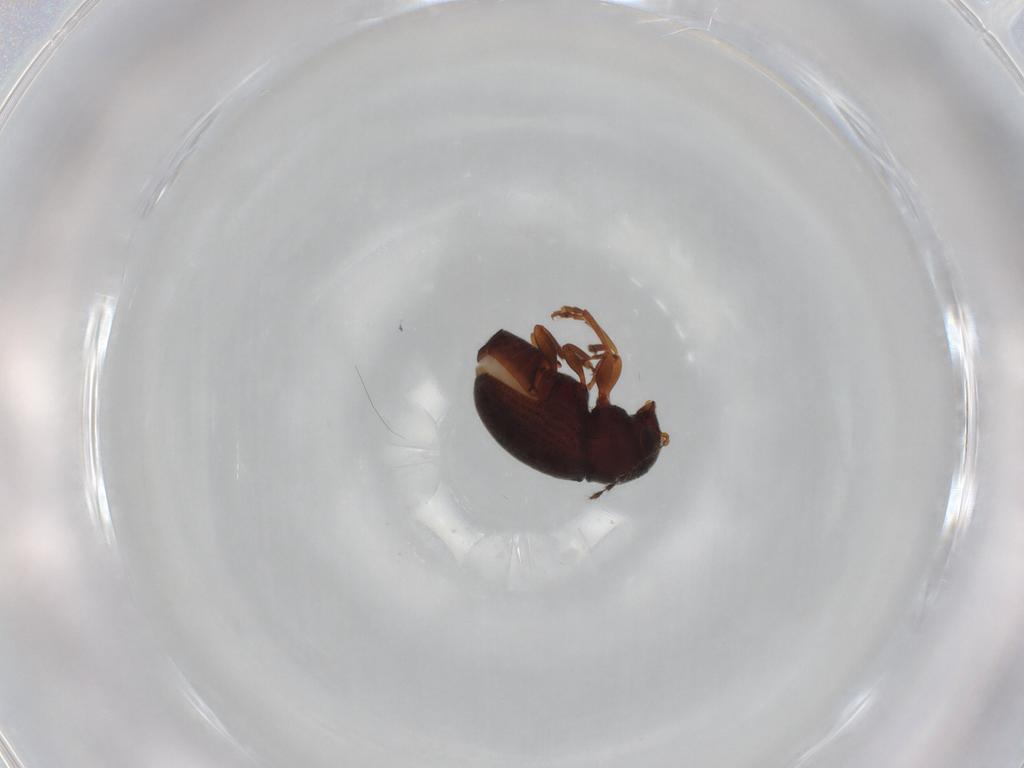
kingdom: Animalia
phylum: Arthropoda
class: Insecta
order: Coleoptera
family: Anthribidae
